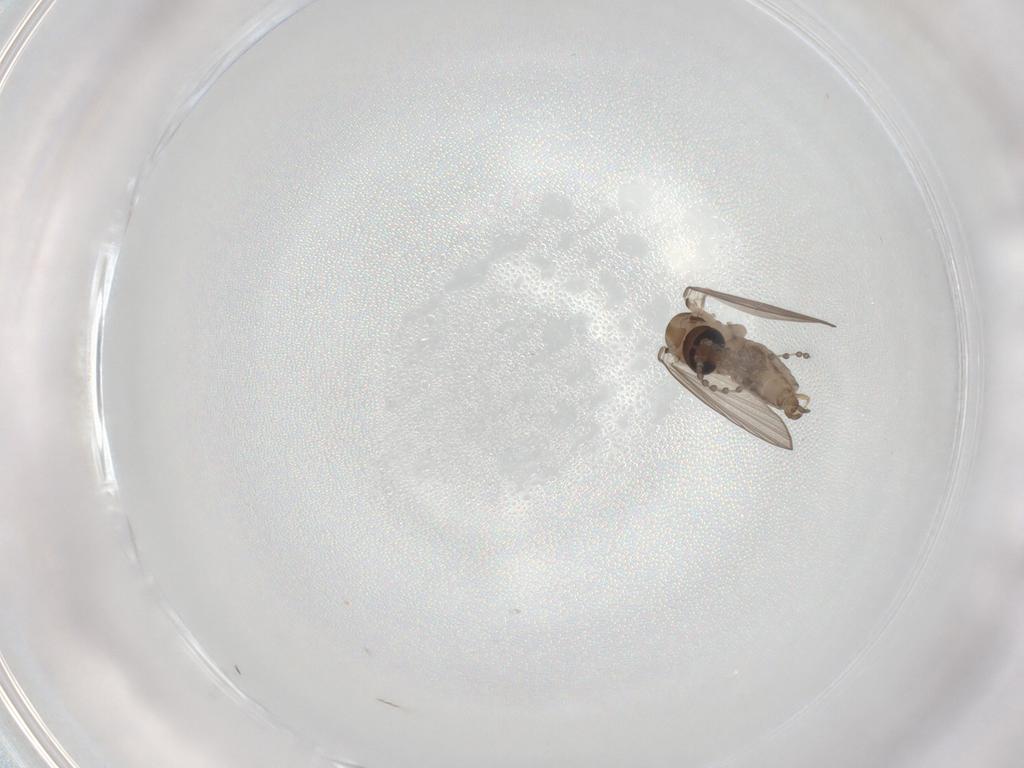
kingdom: Animalia
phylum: Arthropoda
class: Insecta
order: Diptera
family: Psychodidae
